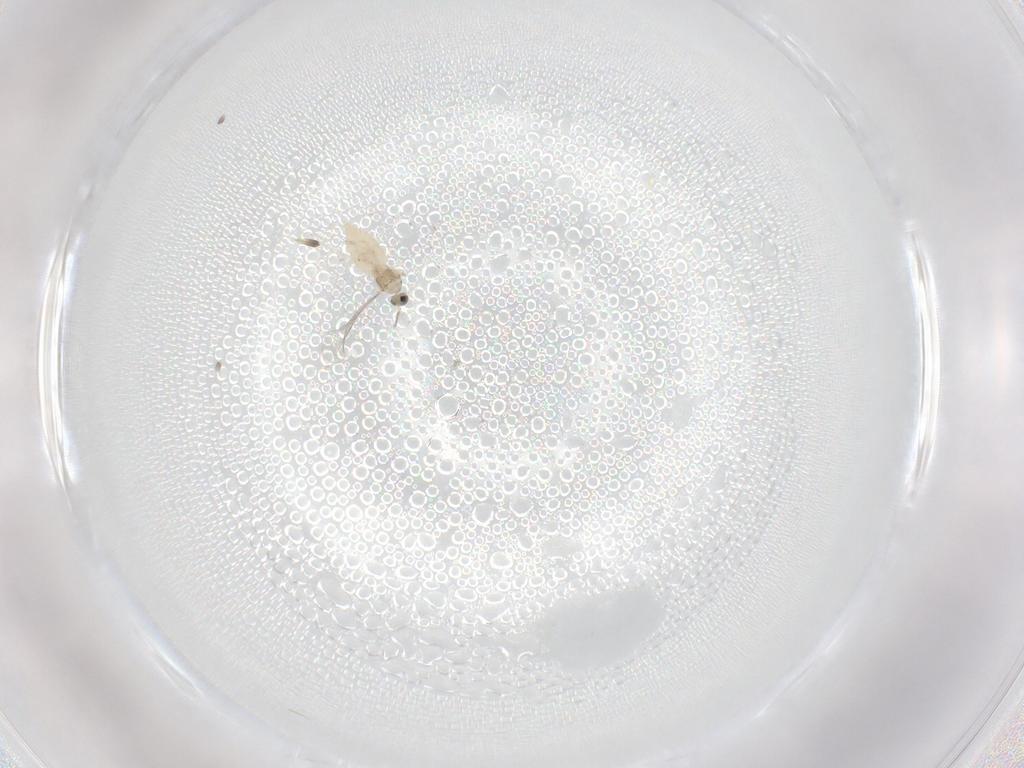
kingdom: Animalia
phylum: Arthropoda
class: Insecta
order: Diptera
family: Cecidomyiidae
